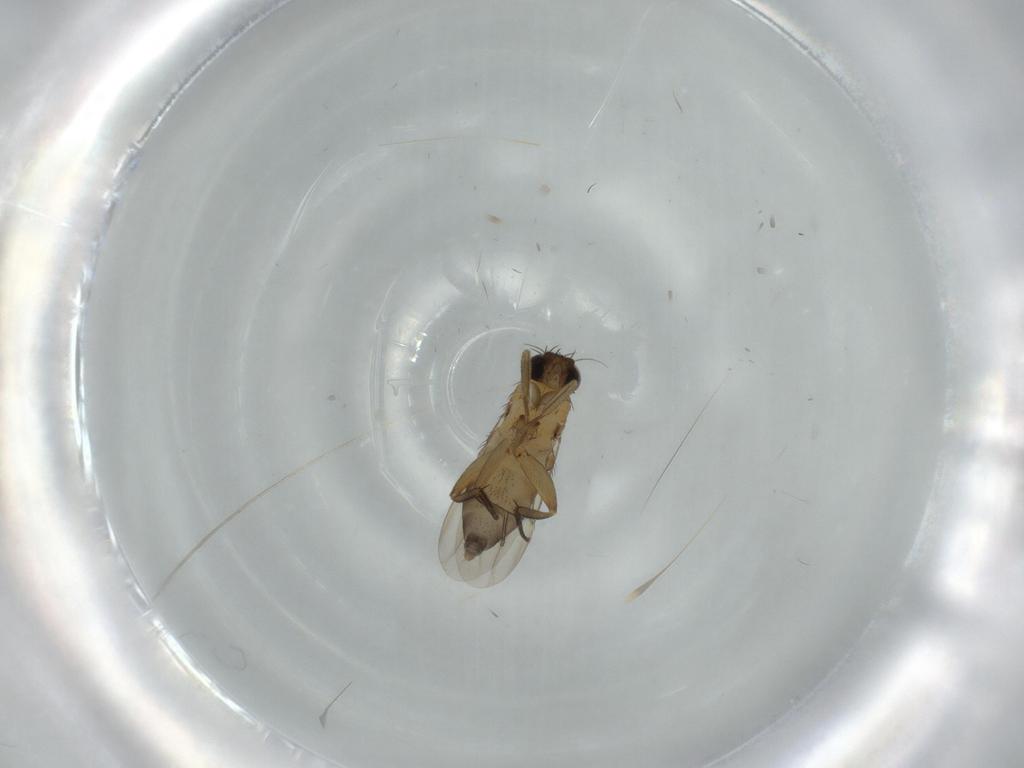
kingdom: Animalia
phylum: Arthropoda
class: Insecta
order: Diptera
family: Phoridae
